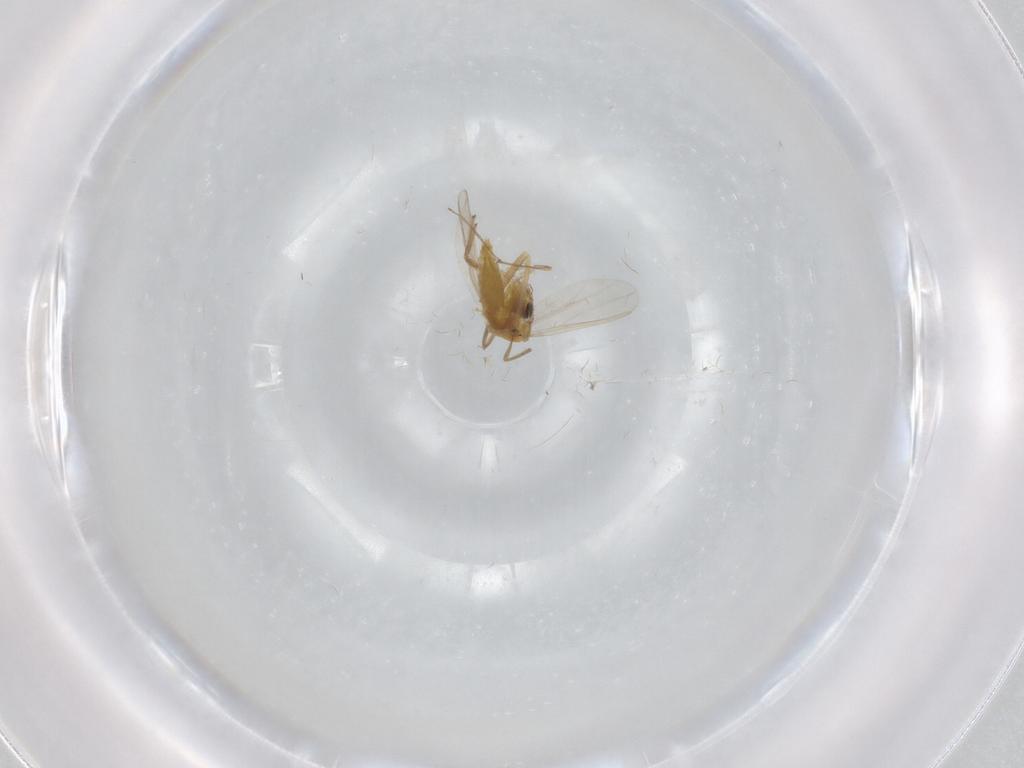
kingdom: Animalia
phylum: Arthropoda
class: Insecta
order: Diptera
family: Chironomidae
